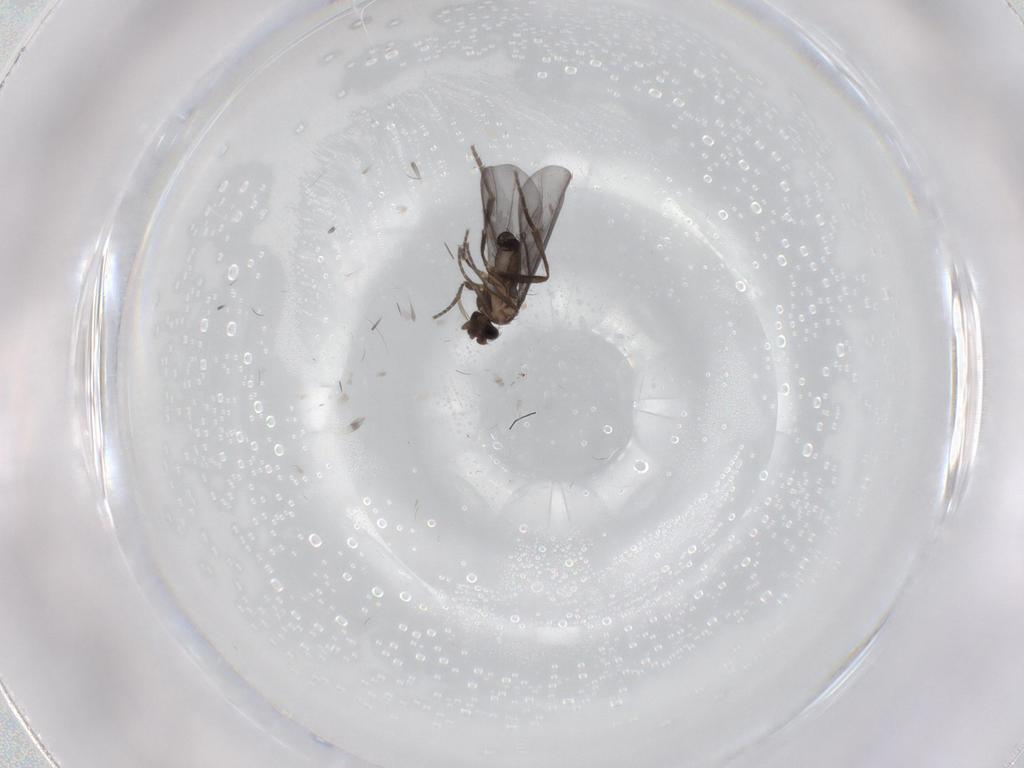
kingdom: Animalia
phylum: Arthropoda
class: Insecta
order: Diptera
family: Phoridae
